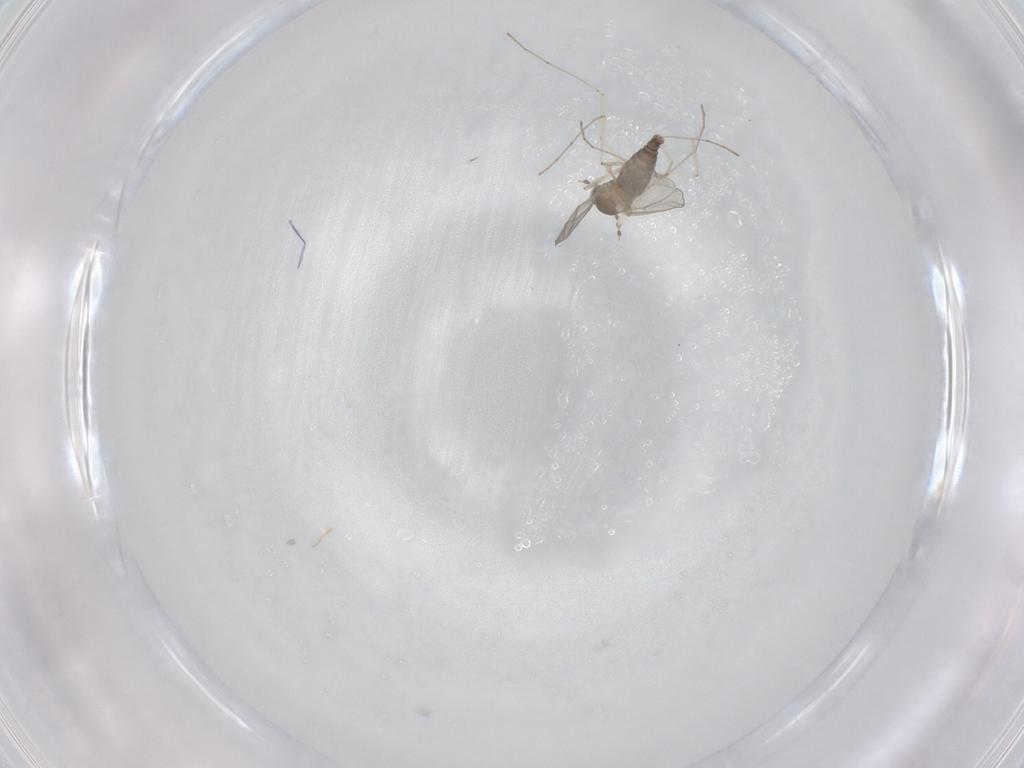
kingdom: Animalia
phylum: Arthropoda
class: Insecta
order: Diptera
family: Cecidomyiidae
